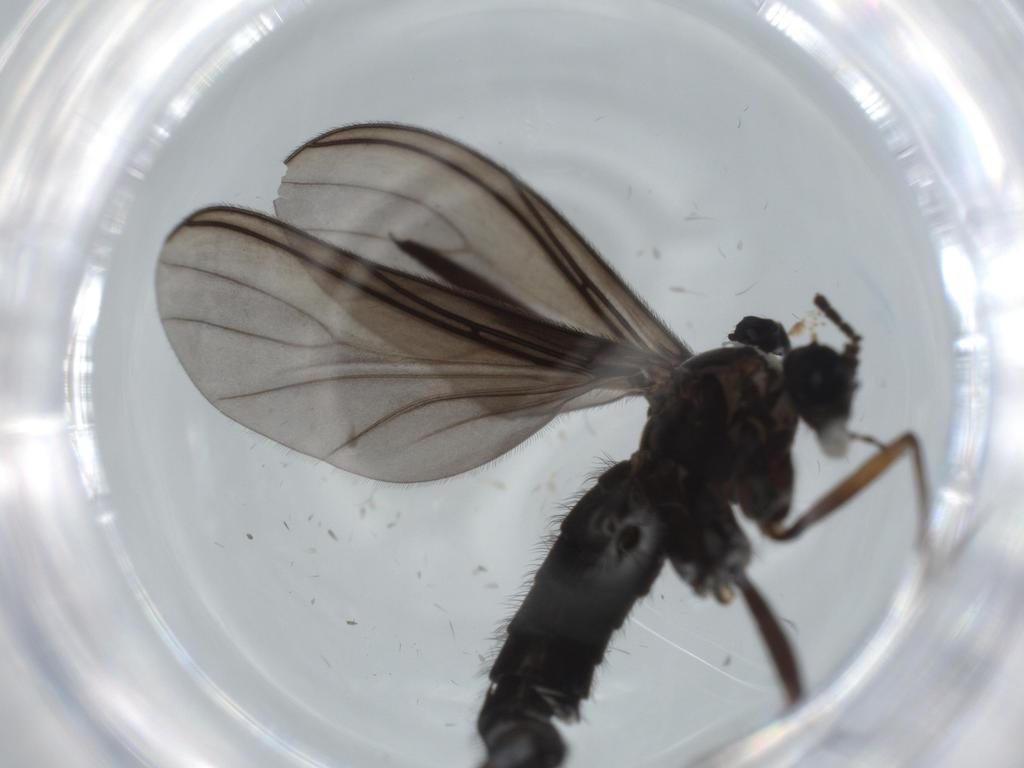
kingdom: Animalia
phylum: Arthropoda
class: Insecta
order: Diptera
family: Sciaridae
